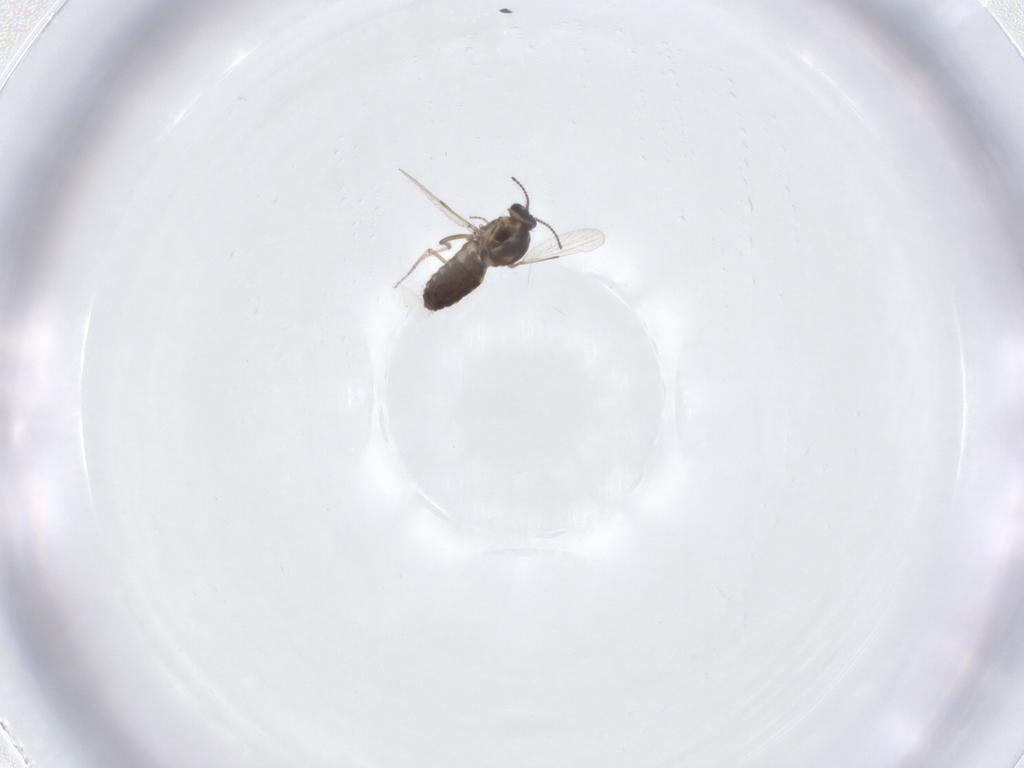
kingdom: Animalia
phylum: Arthropoda
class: Insecta
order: Diptera
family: Ceratopogonidae
